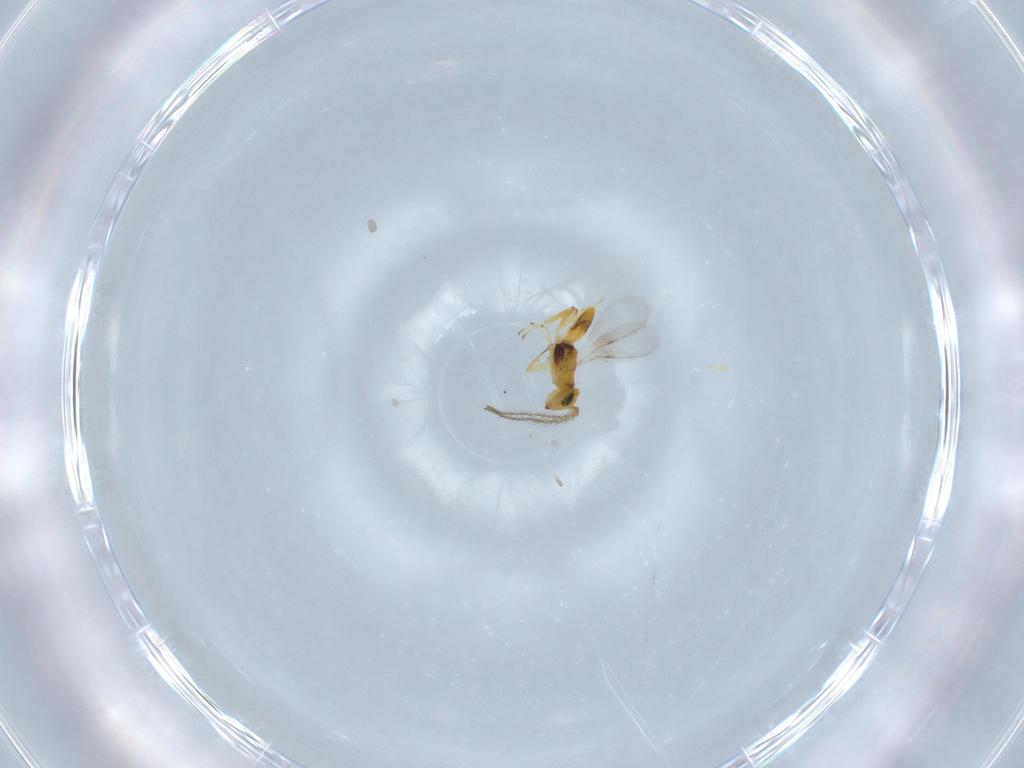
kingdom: Animalia
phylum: Arthropoda
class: Insecta
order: Hymenoptera
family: Encyrtidae
